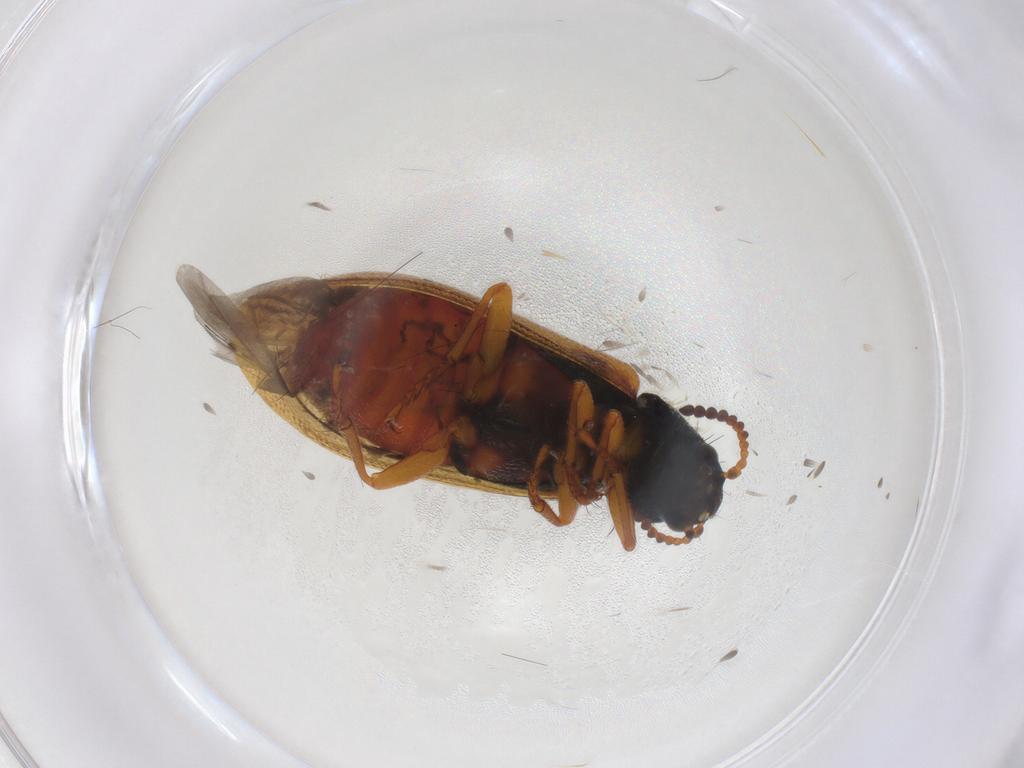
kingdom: Animalia
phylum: Arthropoda
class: Insecta
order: Coleoptera
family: Melyridae
